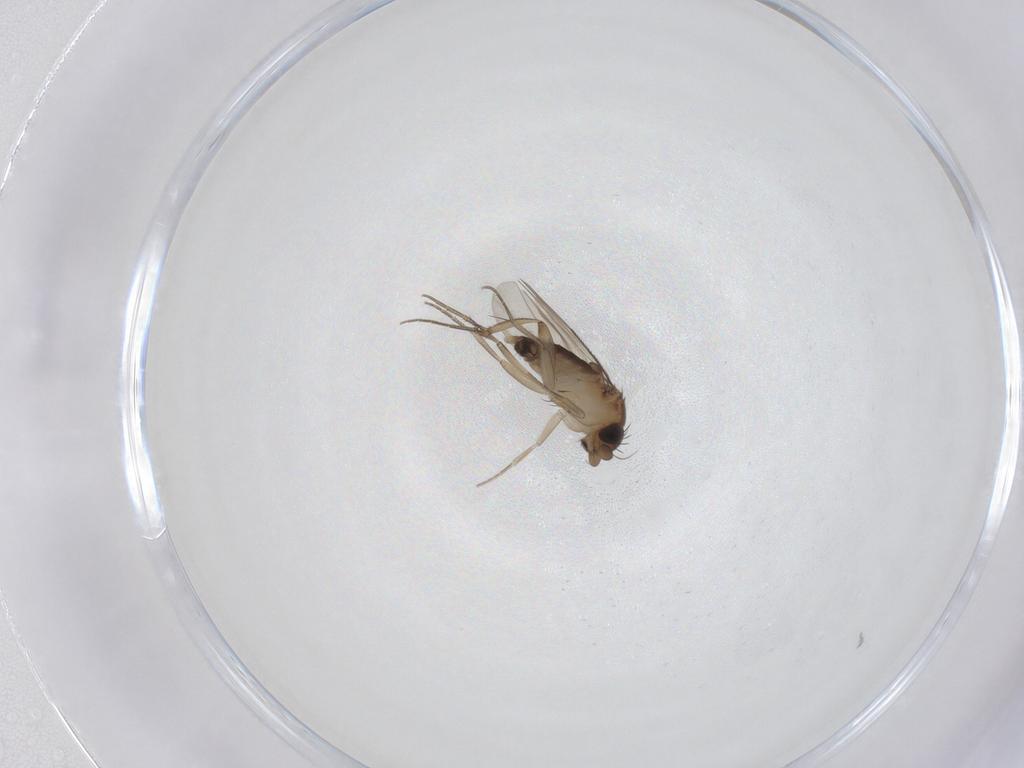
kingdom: Animalia
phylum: Arthropoda
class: Insecta
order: Diptera
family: Phoridae
